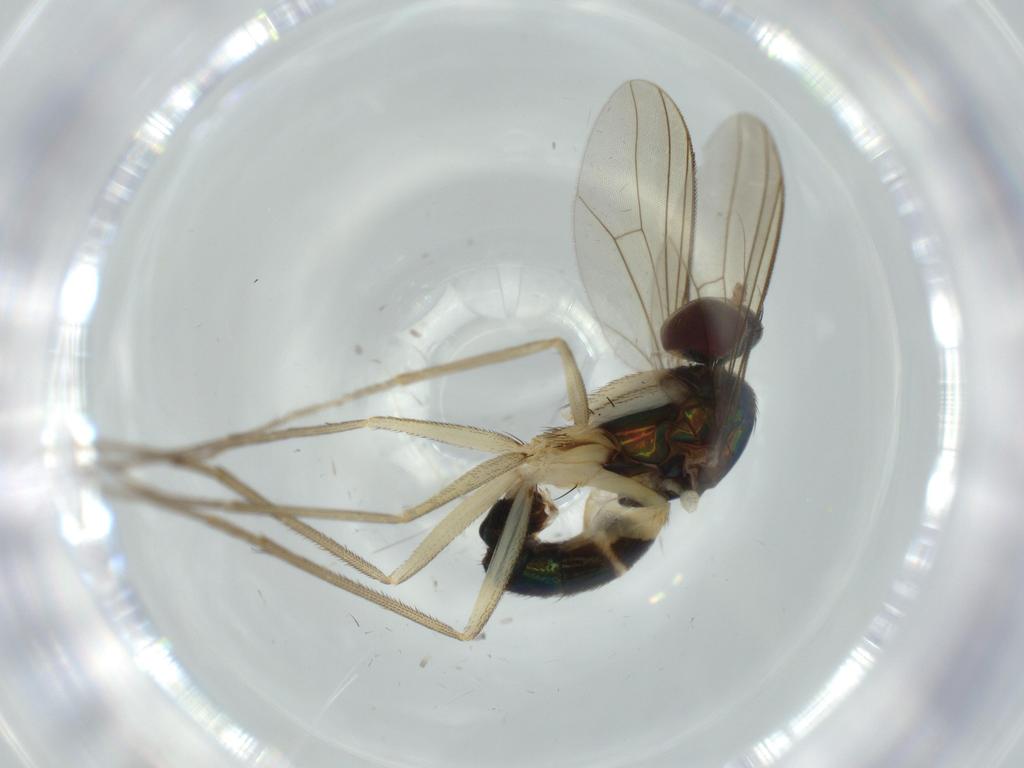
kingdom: Animalia
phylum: Arthropoda
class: Insecta
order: Diptera
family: Dolichopodidae
